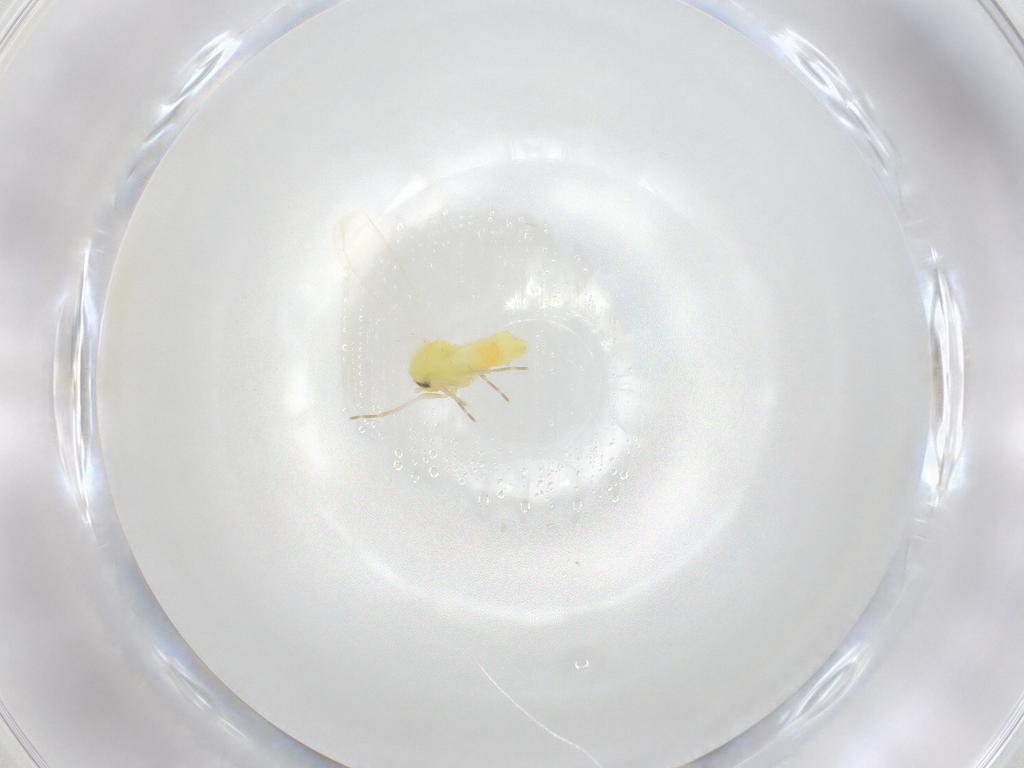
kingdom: Animalia
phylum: Arthropoda
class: Insecta
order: Hemiptera
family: Aleyrodidae
